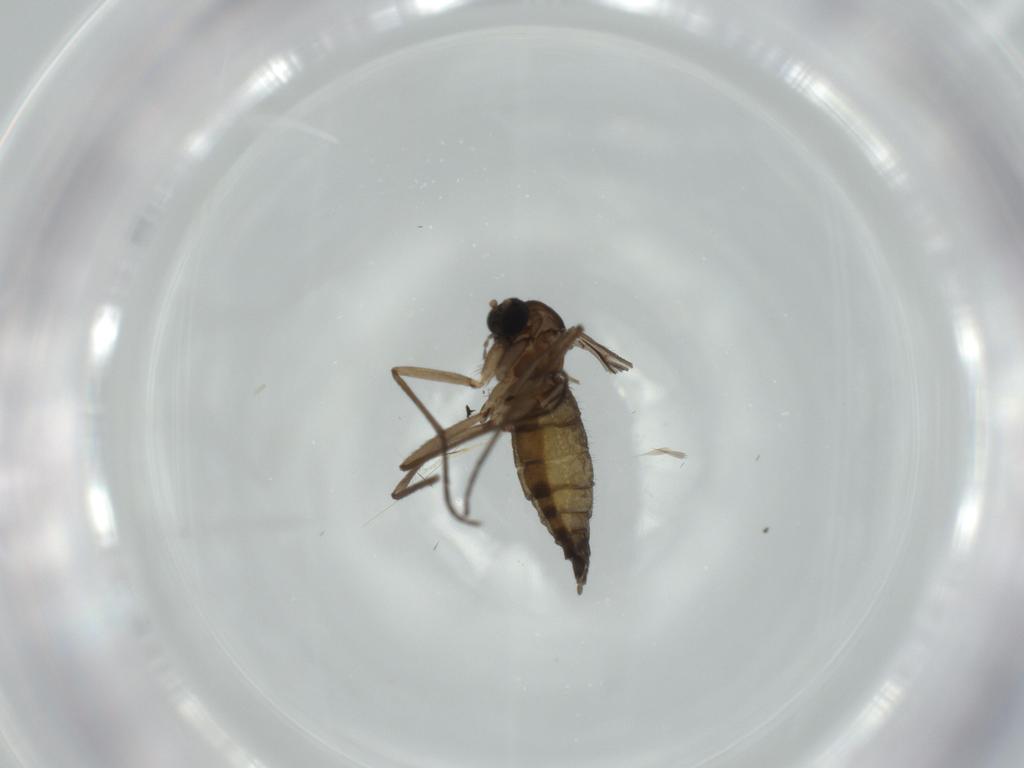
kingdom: Animalia
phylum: Arthropoda
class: Insecta
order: Diptera
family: Sciaridae
